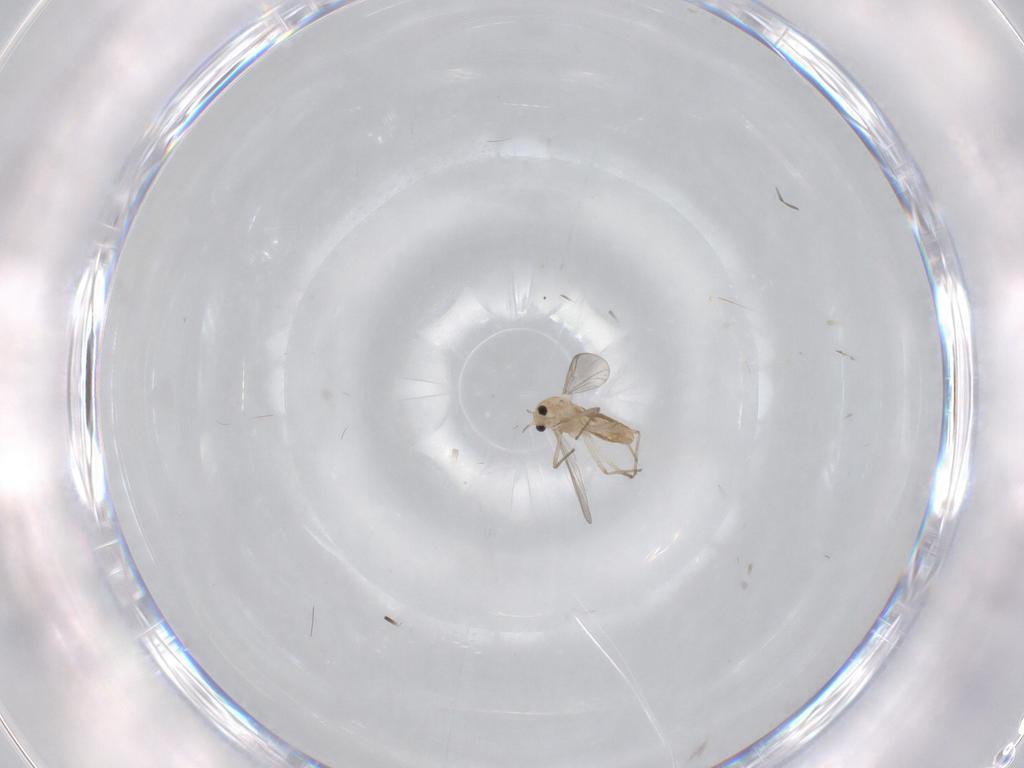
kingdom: Animalia
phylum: Arthropoda
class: Insecta
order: Diptera
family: Chironomidae
